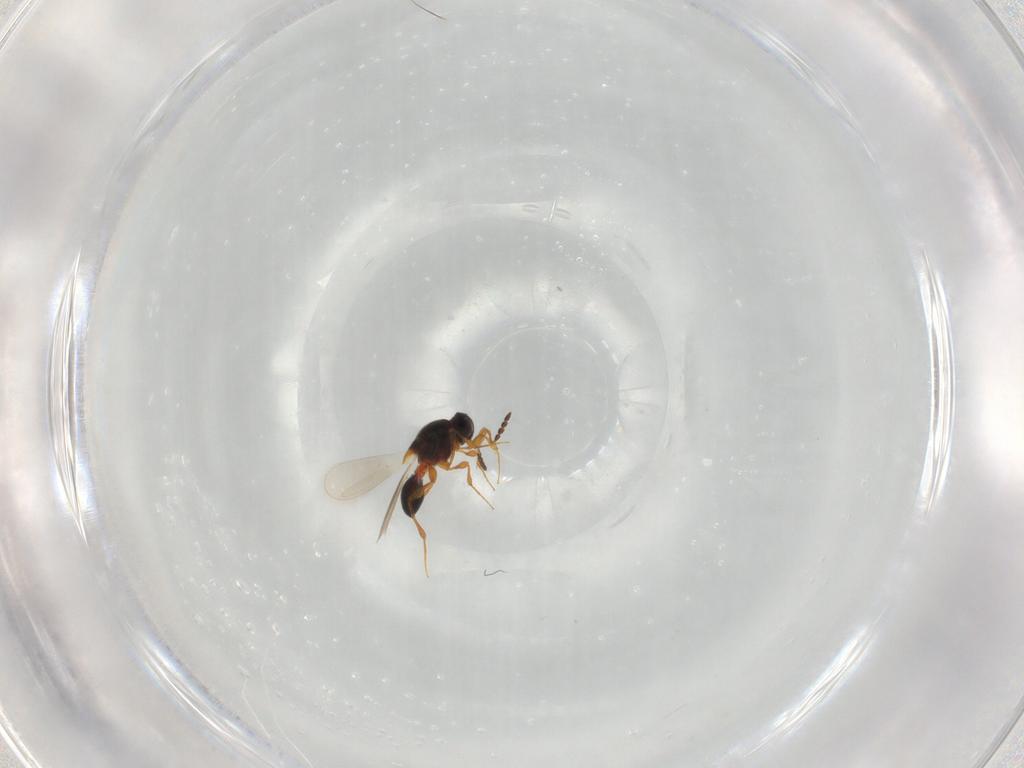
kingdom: Animalia
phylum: Arthropoda
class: Insecta
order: Hymenoptera
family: Platygastridae
